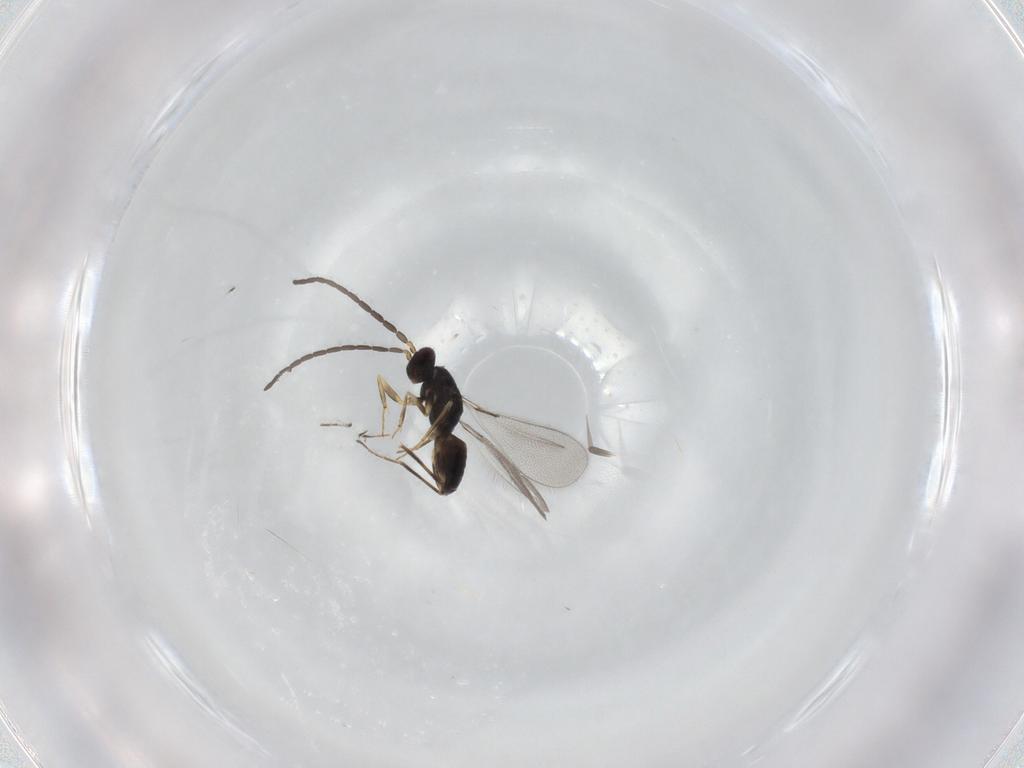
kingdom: Animalia
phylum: Arthropoda
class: Insecta
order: Hymenoptera
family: Mymaridae
